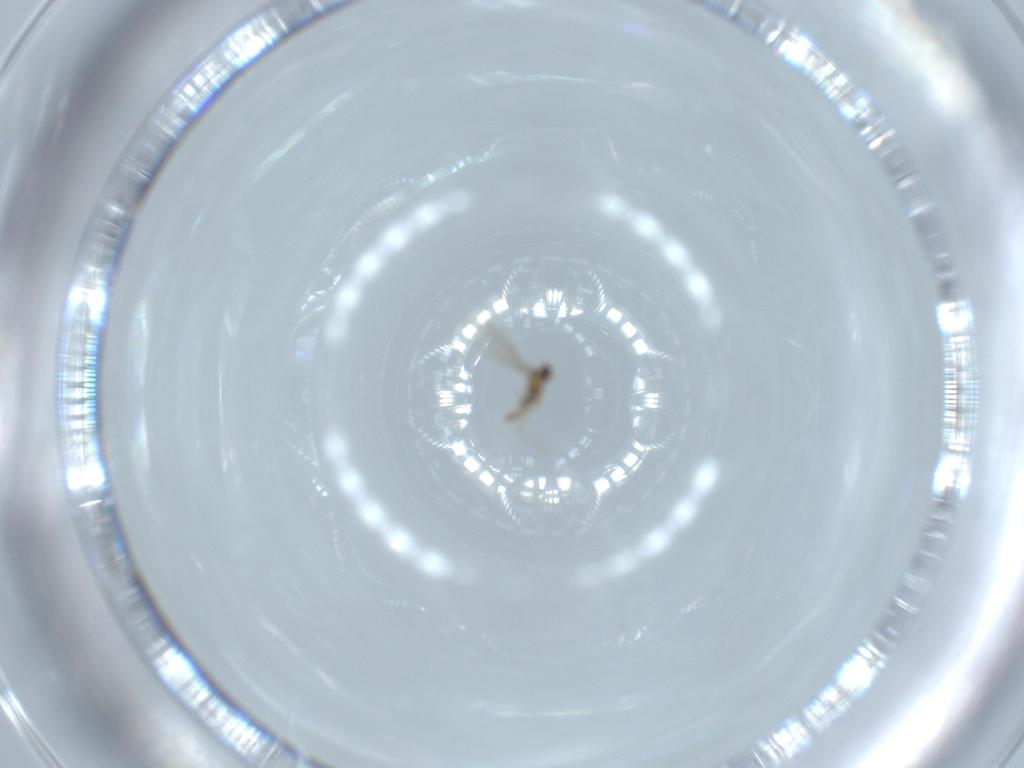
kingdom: Animalia
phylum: Arthropoda
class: Insecta
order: Diptera
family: Cecidomyiidae
